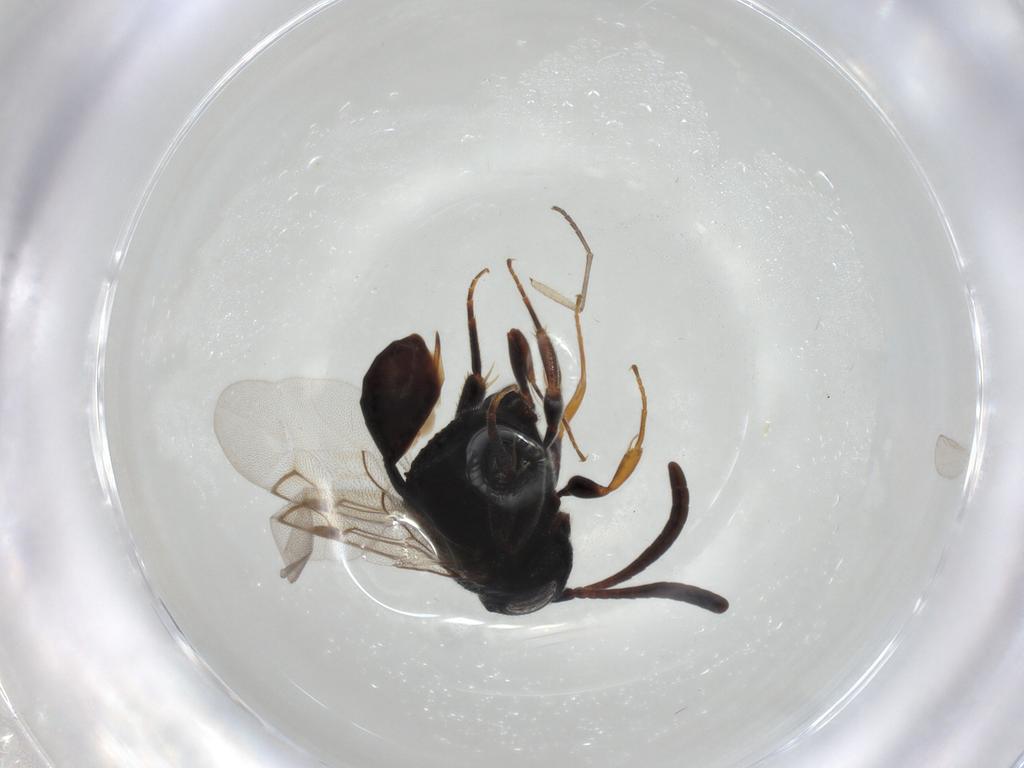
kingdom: Animalia
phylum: Arthropoda
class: Insecta
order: Hymenoptera
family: Evaniidae
